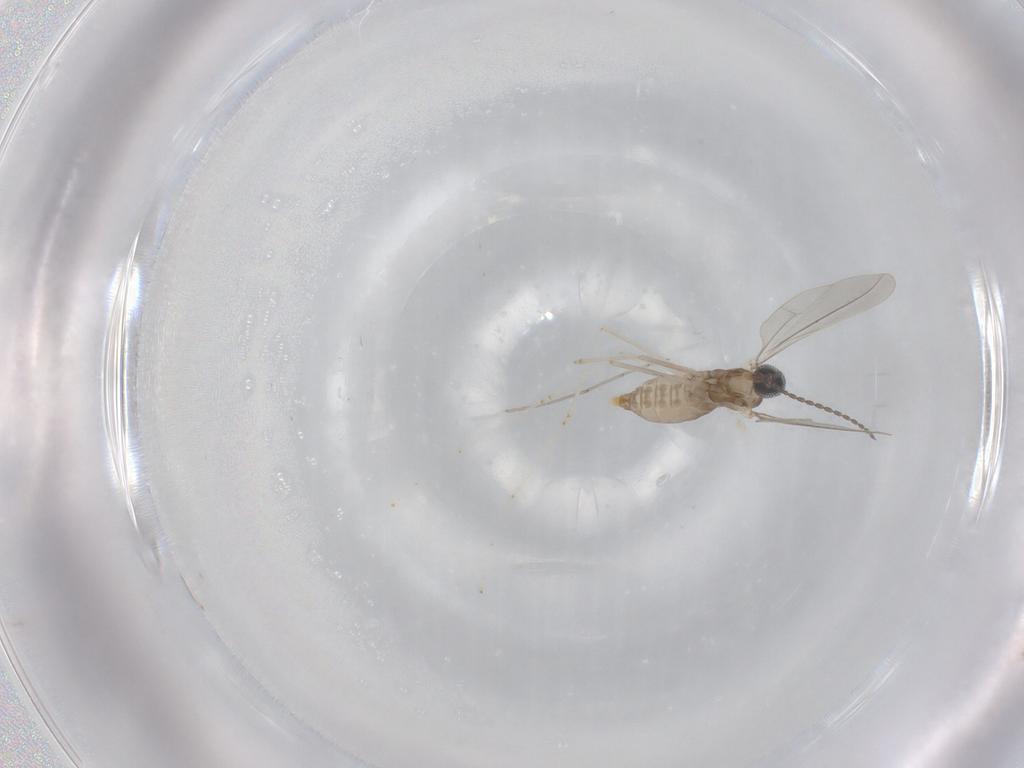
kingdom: Animalia
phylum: Arthropoda
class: Insecta
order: Diptera
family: Cecidomyiidae
